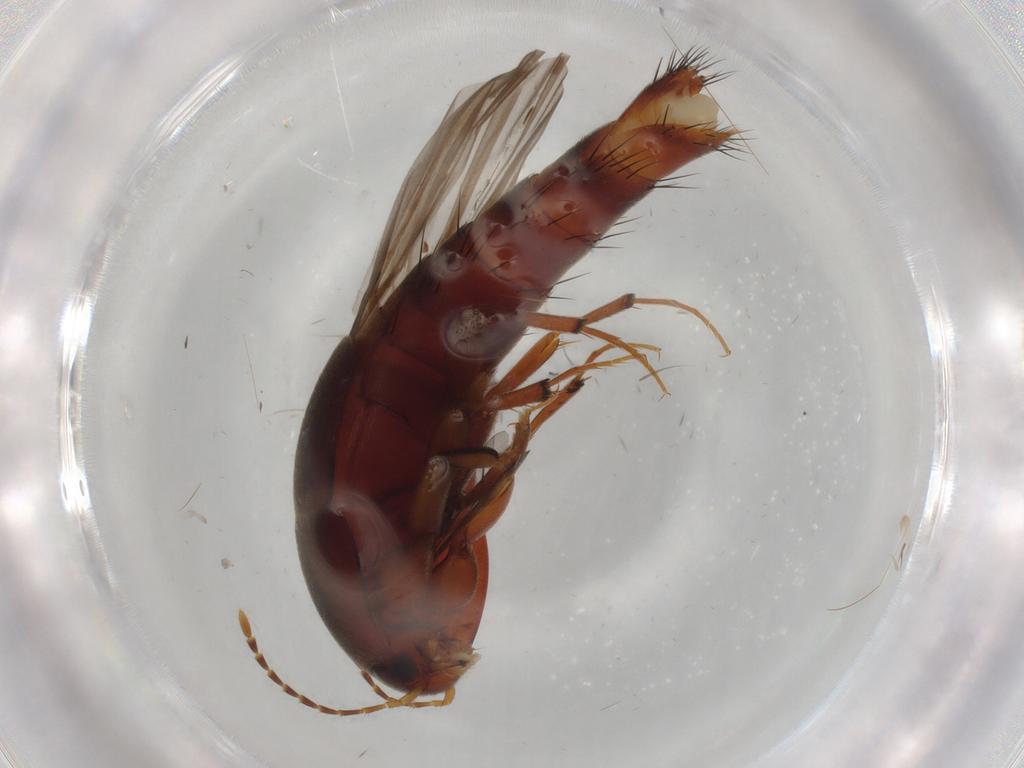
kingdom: Animalia
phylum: Arthropoda
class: Insecta
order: Coleoptera
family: Staphylinidae
